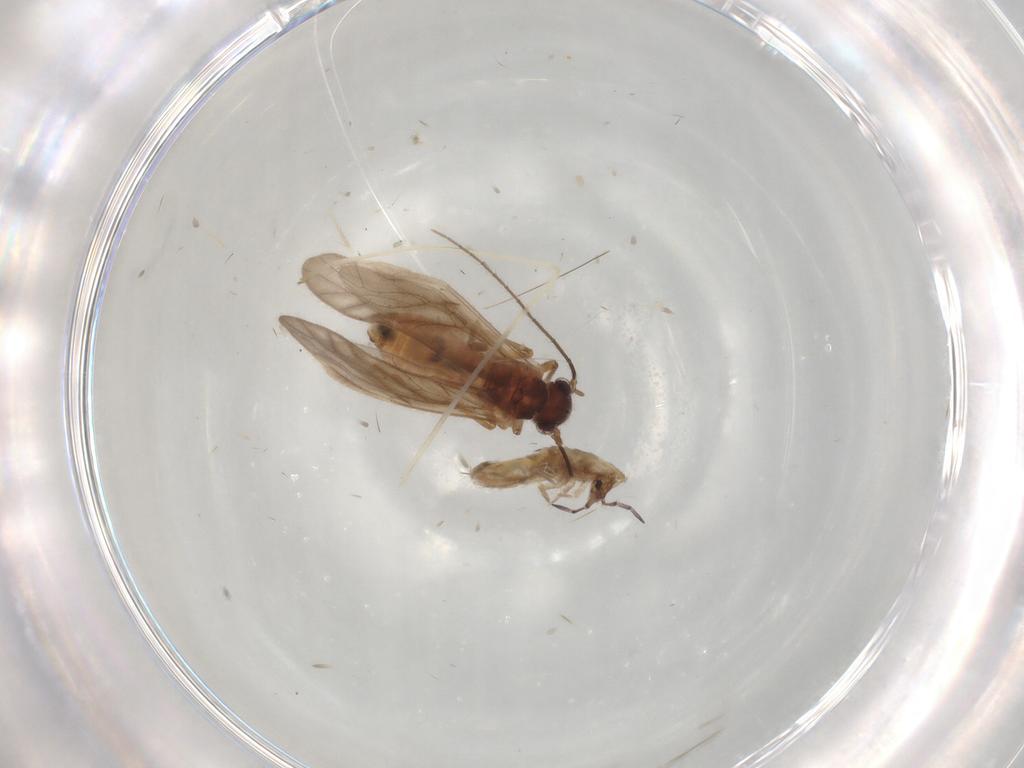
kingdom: Animalia
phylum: Arthropoda
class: Insecta
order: Psocodea
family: Caeciliusidae
